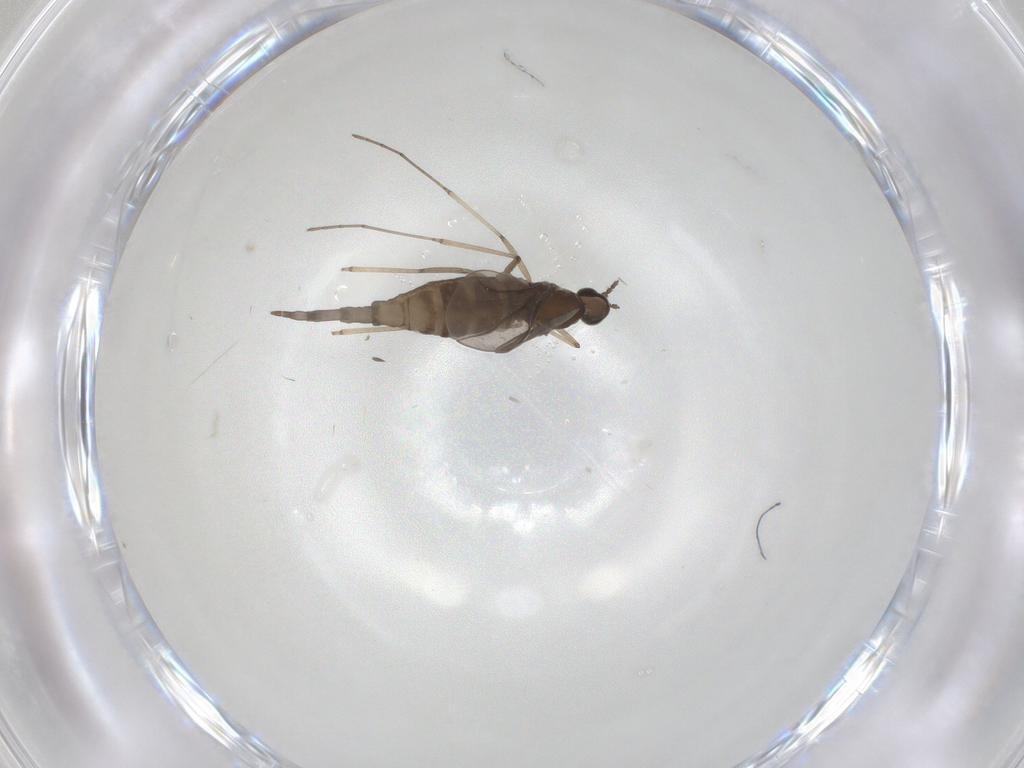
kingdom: Animalia
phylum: Arthropoda
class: Insecta
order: Diptera
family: Cecidomyiidae
